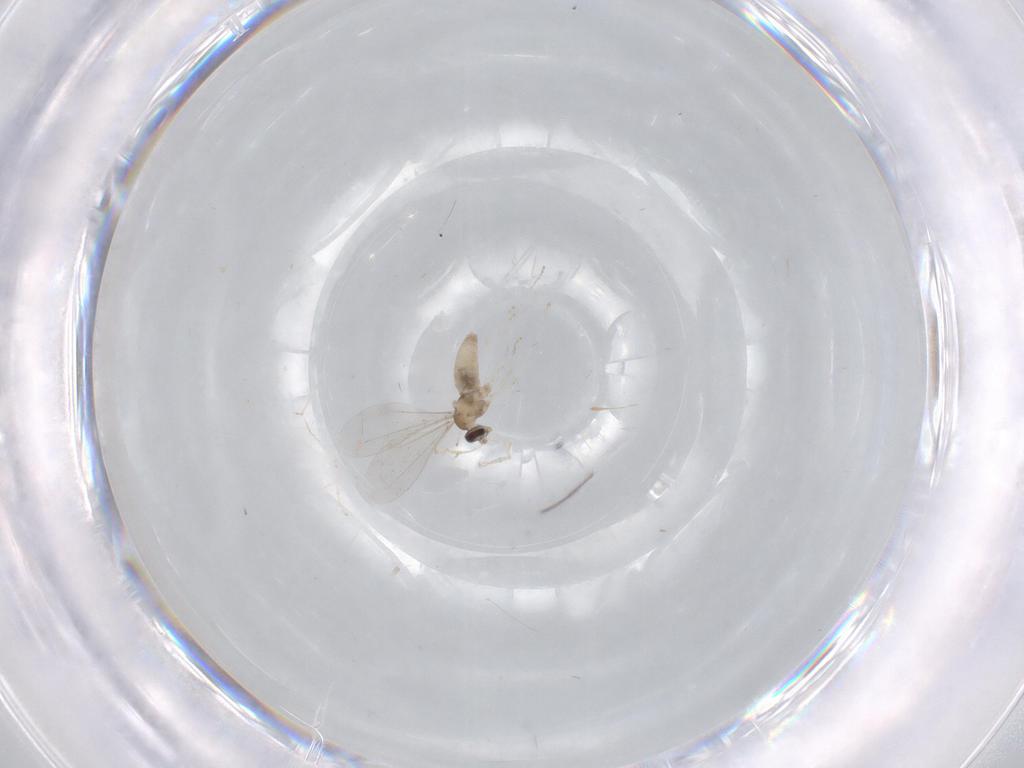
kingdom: Animalia
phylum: Arthropoda
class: Insecta
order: Diptera
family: Cecidomyiidae
